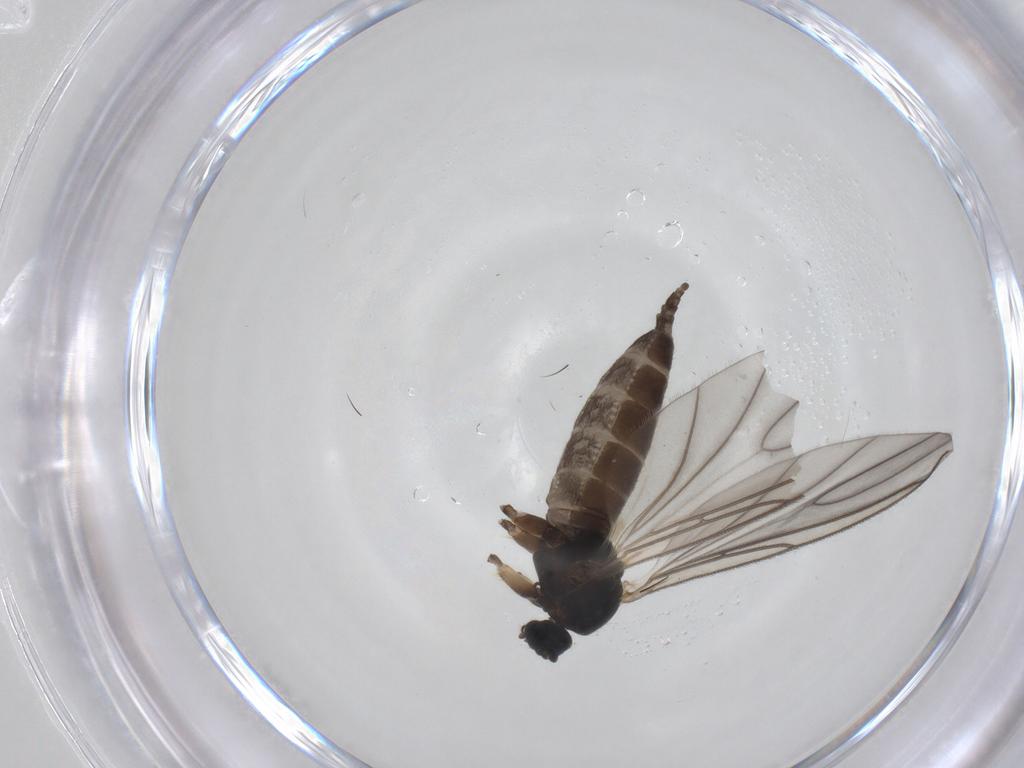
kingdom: Animalia
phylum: Arthropoda
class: Insecta
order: Diptera
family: Sciaridae
